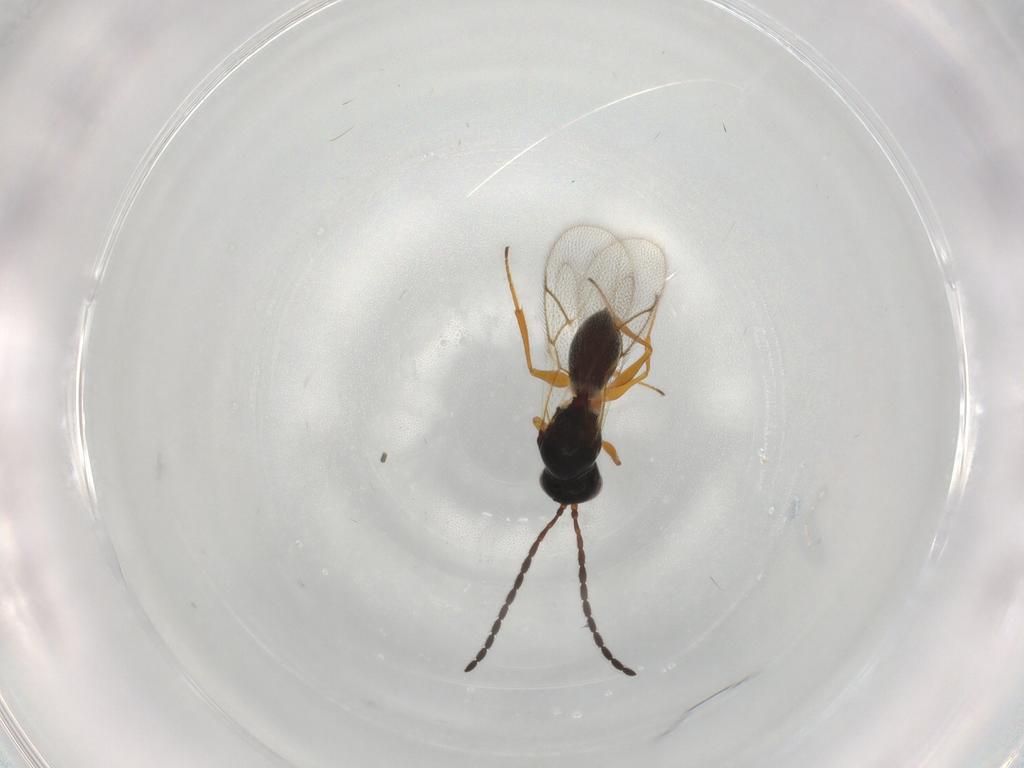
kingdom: Animalia
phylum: Arthropoda
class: Insecta
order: Hymenoptera
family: Figitidae
